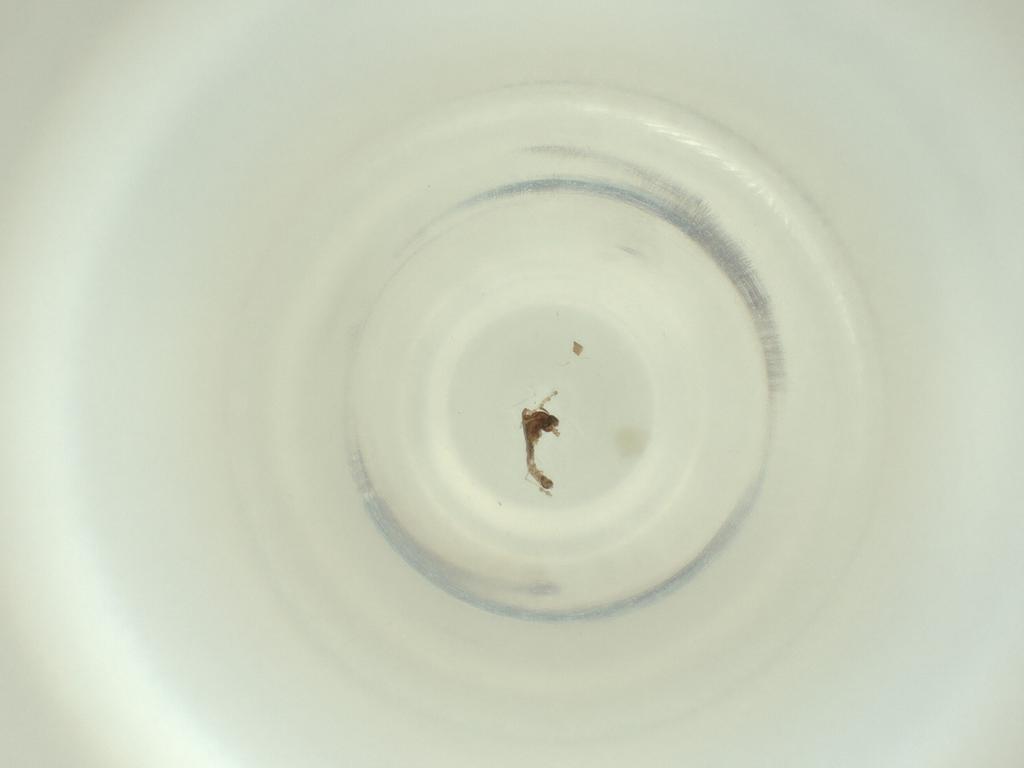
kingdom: Animalia
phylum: Arthropoda
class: Insecta
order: Diptera
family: Cecidomyiidae
